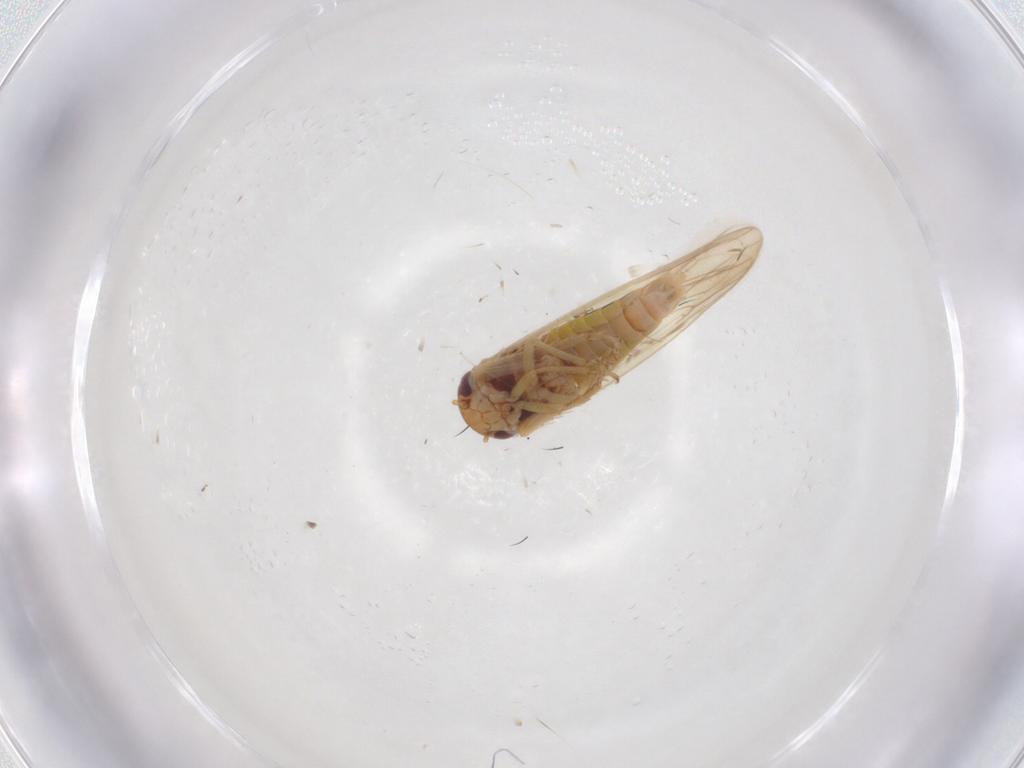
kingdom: Animalia
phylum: Arthropoda
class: Insecta
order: Hemiptera
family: Cicadellidae
